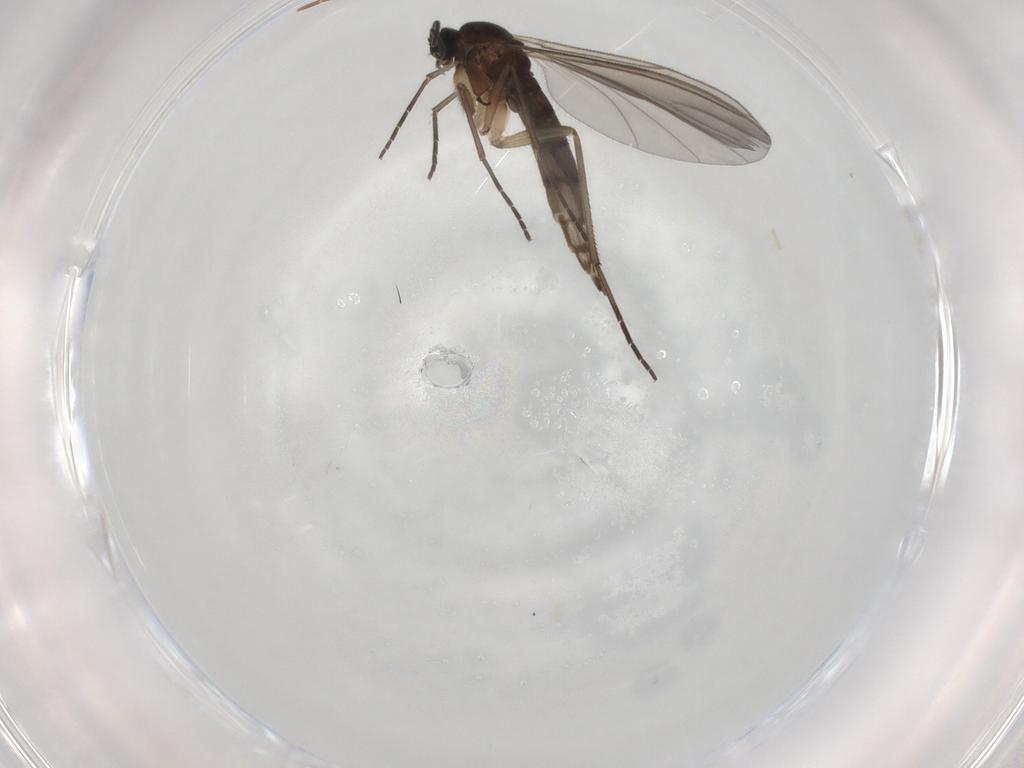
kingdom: Animalia
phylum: Arthropoda
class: Insecta
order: Diptera
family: Sciaridae
